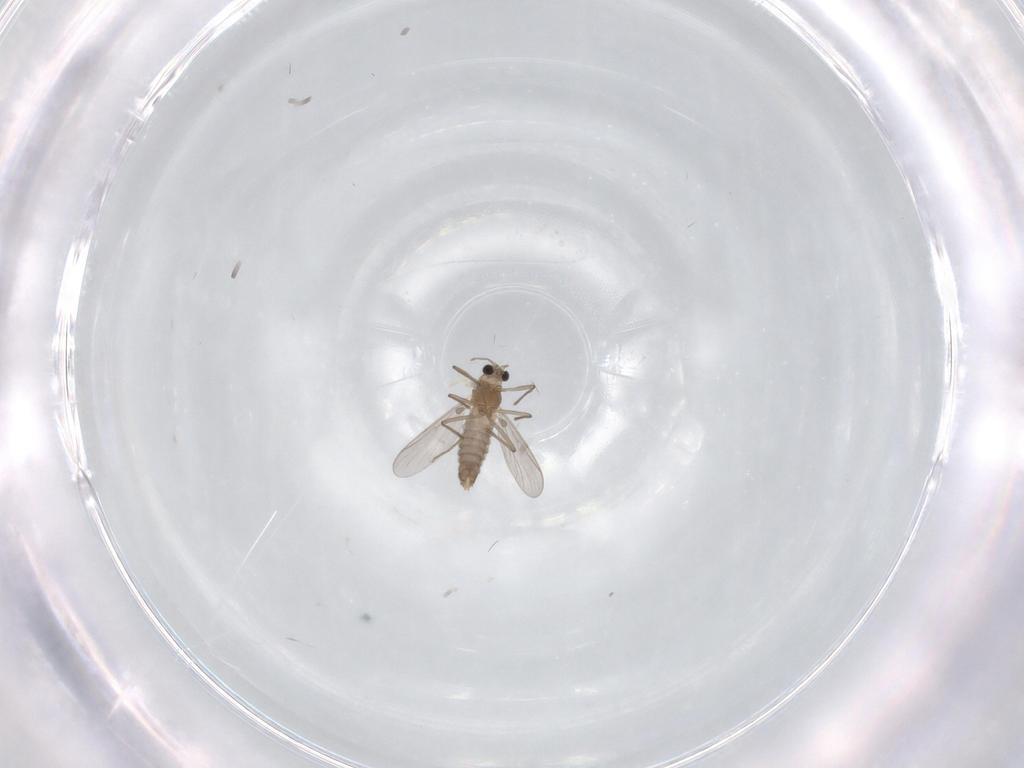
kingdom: Animalia
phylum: Arthropoda
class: Insecta
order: Diptera
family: Chironomidae
